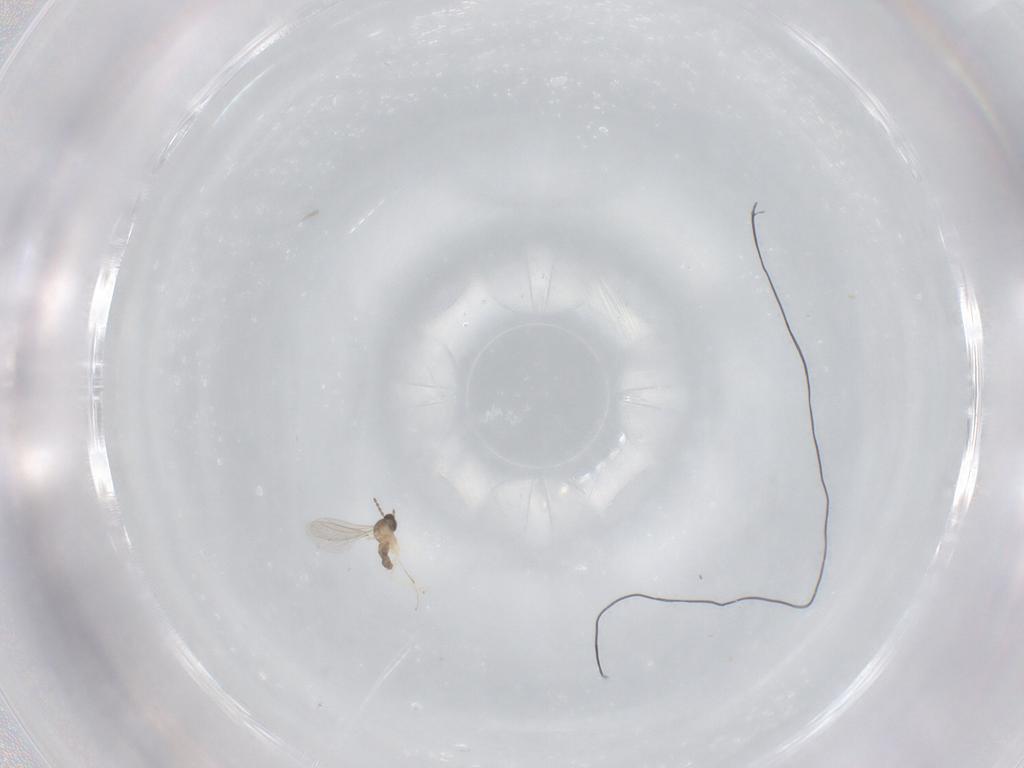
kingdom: Animalia
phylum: Arthropoda
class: Insecta
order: Diptera
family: Cecidomyiidae
